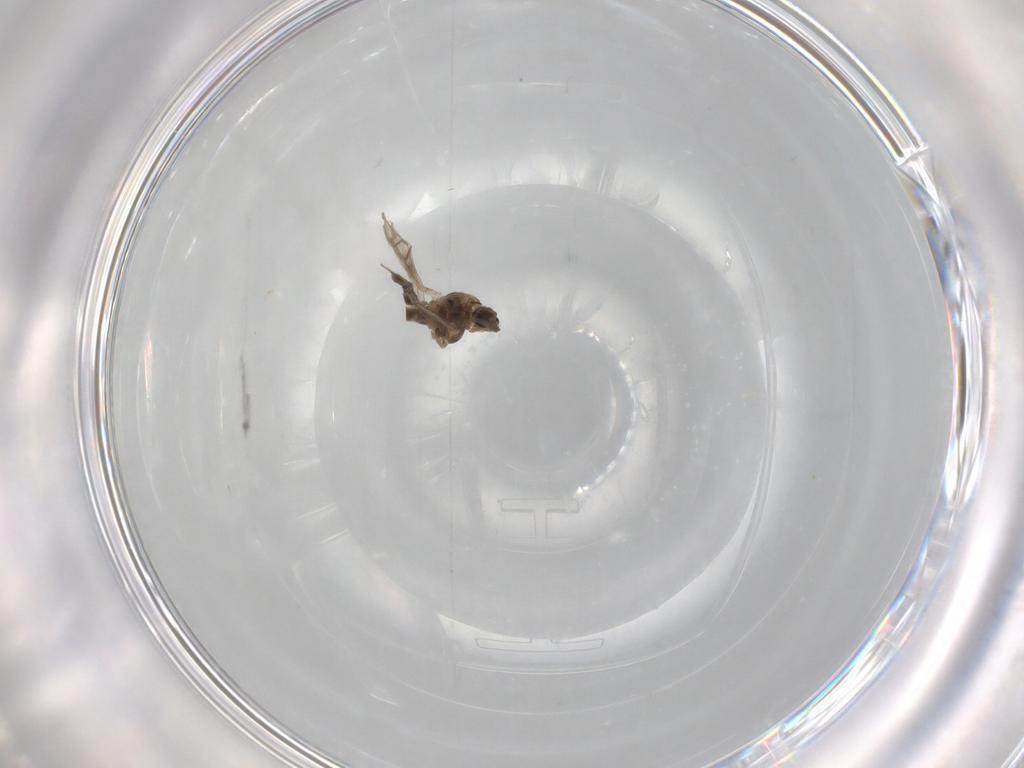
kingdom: Animalia
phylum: Arthropoda
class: Insecta
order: Diptera
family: Chironomidae
